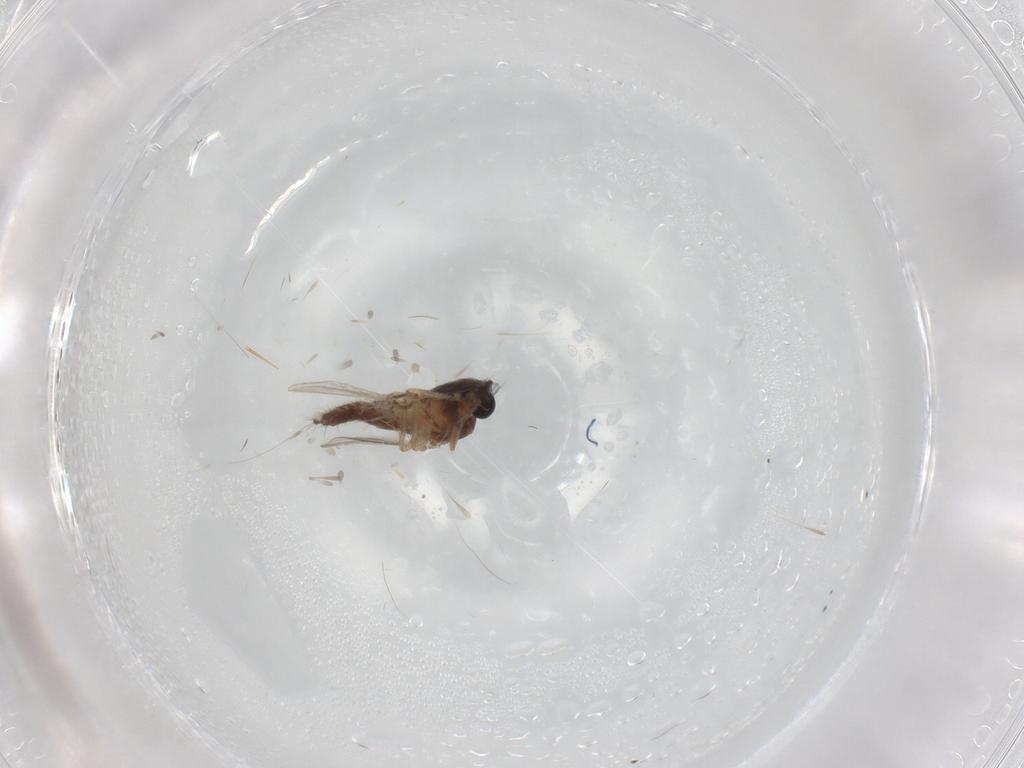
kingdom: Animalia
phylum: Arthropoda
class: Insecta
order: Diptera
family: Ceratopogonidae
